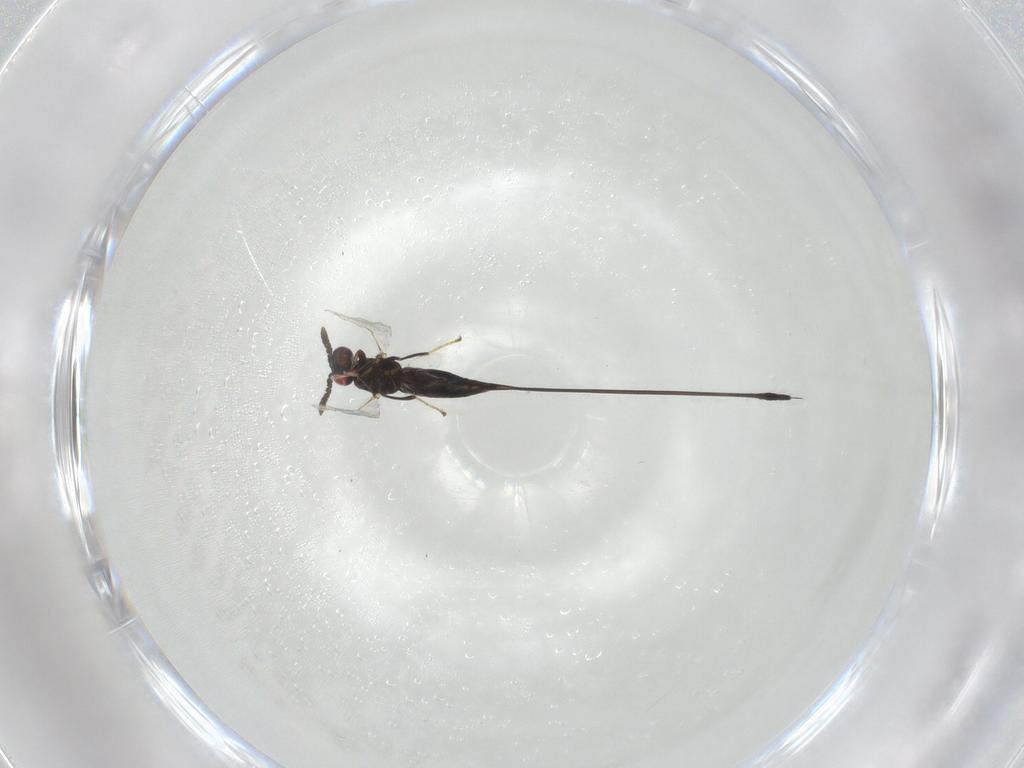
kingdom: Animalia
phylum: Arthropoda
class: Insecta
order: Hymenoptera
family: Pteromalidae
